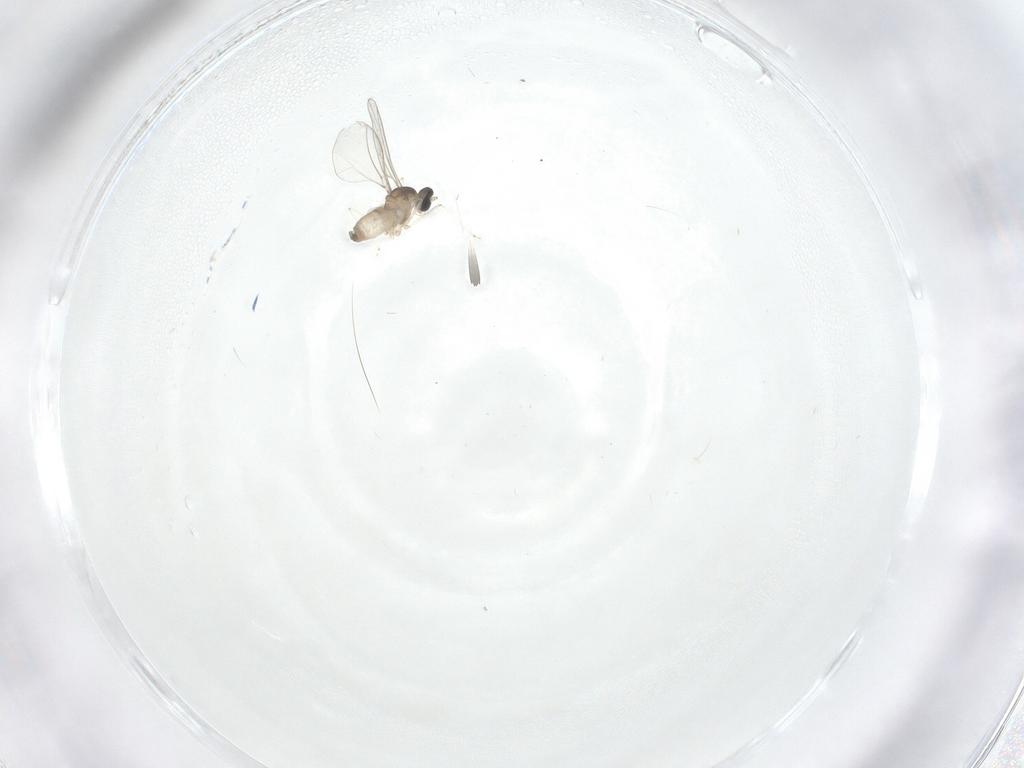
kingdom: Animalia
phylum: Arthropoda
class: Insecta
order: Diptera
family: Cecidomyiidae
